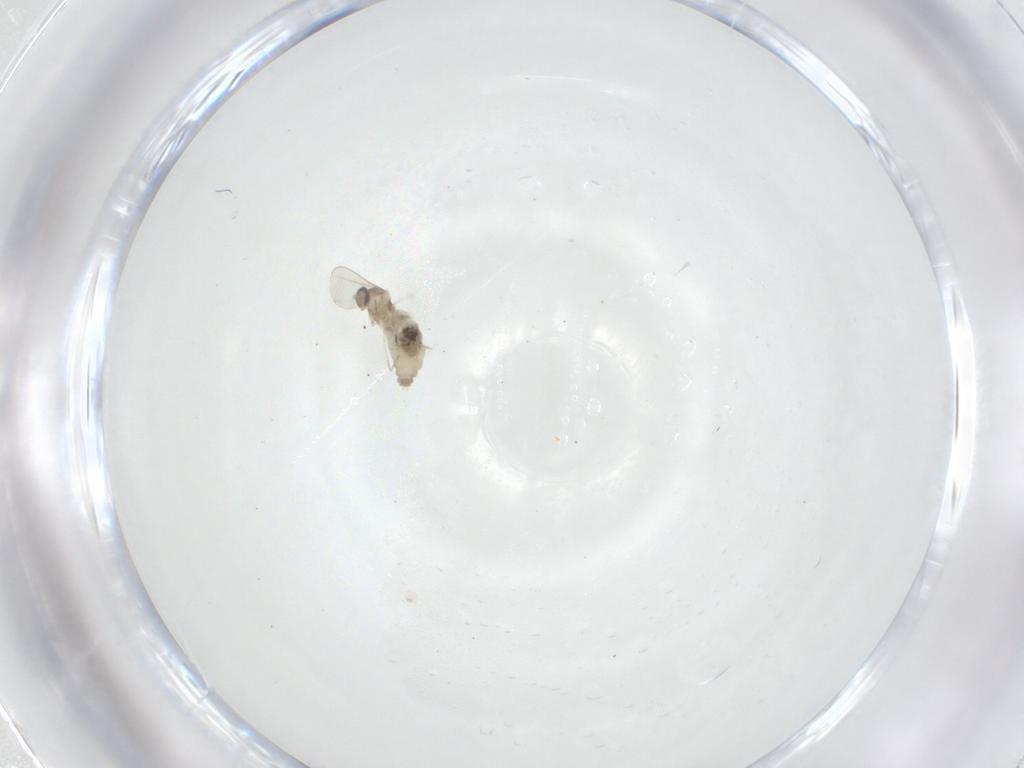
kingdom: Animalia
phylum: Arthropoda
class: Insecta
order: Diptera
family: Cecidomyiidae
